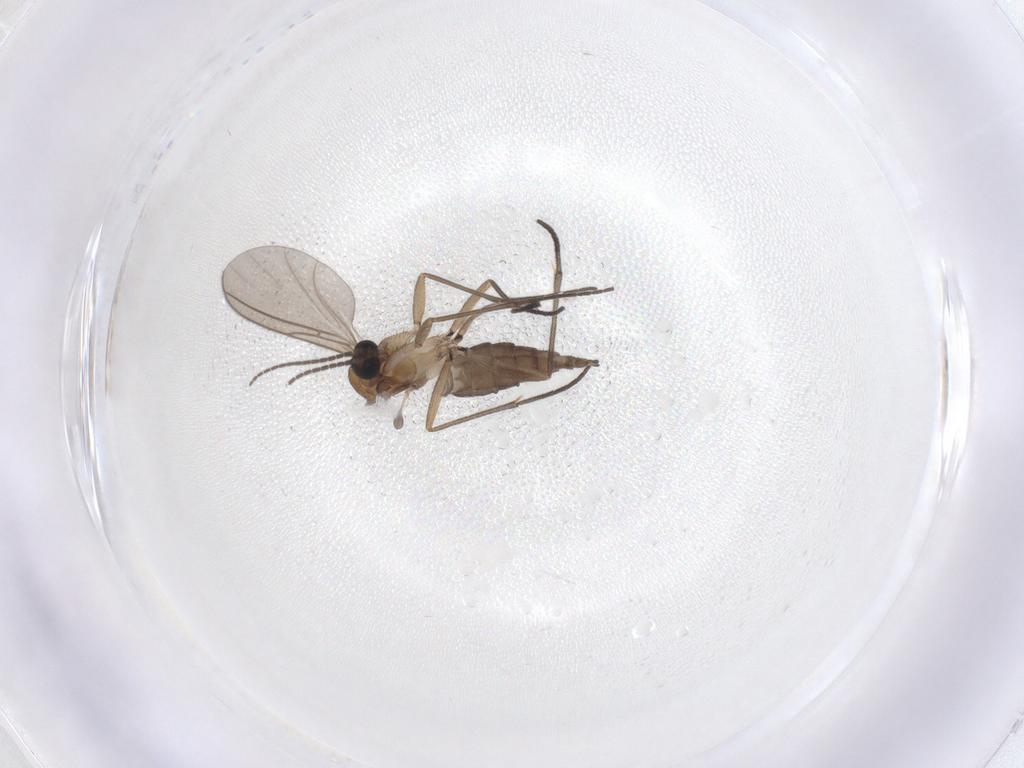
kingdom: Animalia
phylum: Arthropoda
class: Insecta
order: Diptera
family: Sciaridae
